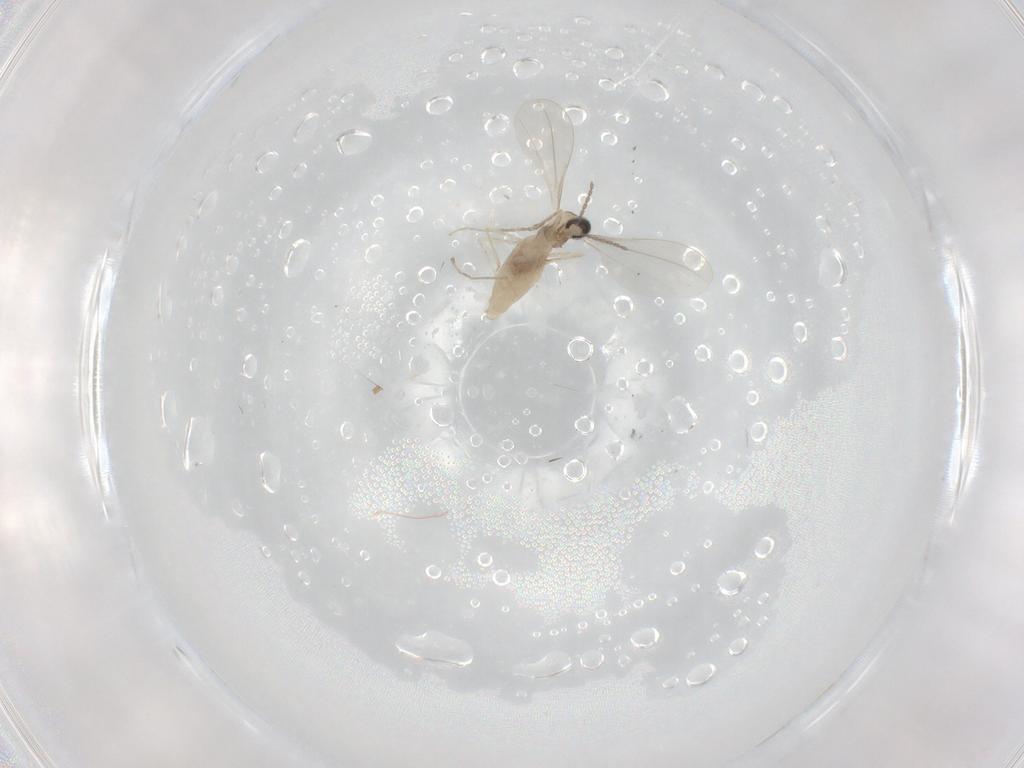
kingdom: Animalia
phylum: Arthropoda
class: Insecta
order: Diptera
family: Cecidomyiidae
